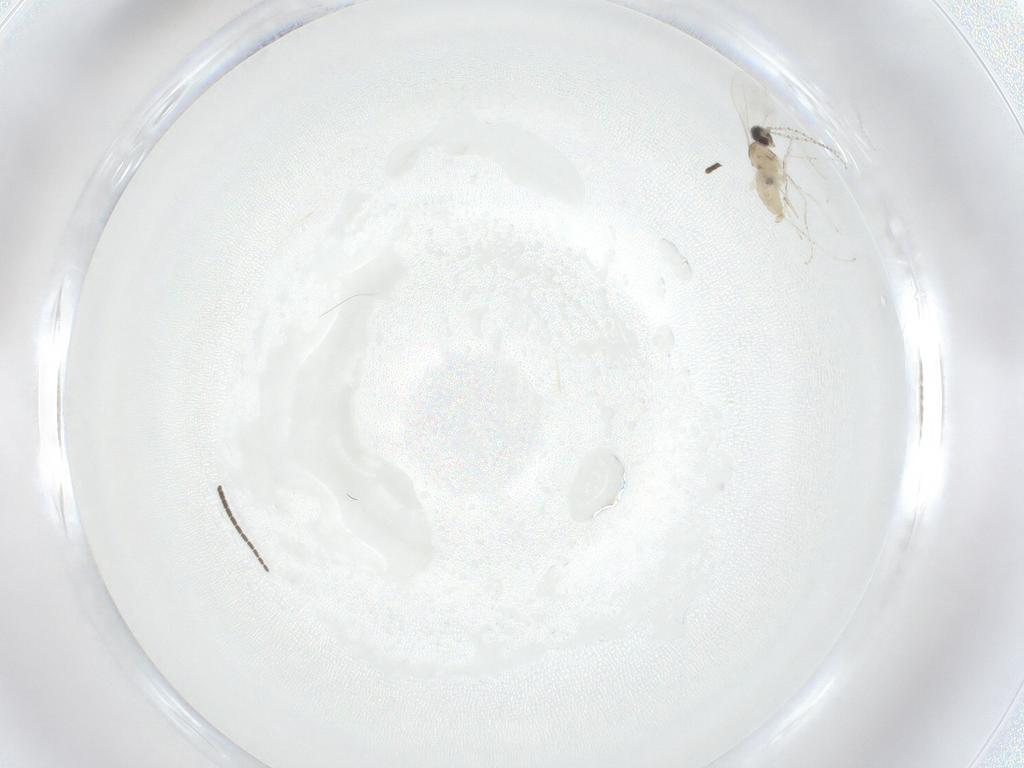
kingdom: Animalia
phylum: Arthropoda
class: Insecta
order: Diptera
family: Cecidomyiidae
